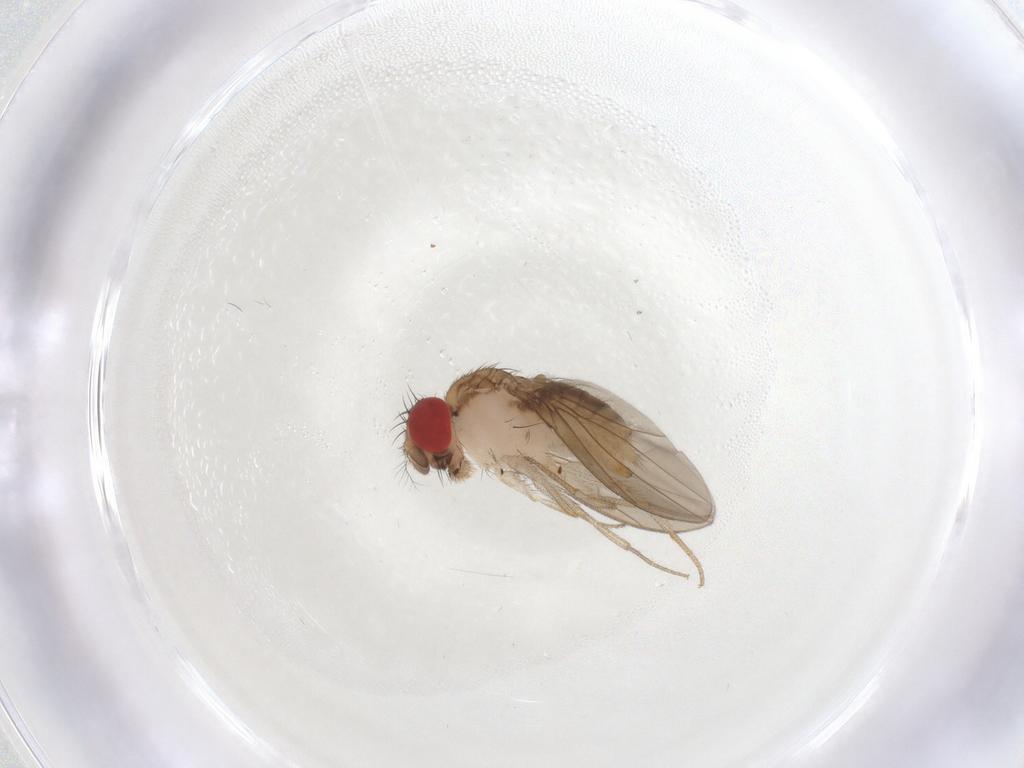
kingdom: Animalia
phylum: Arthropoda
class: Insecta
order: Diptera
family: Drosophilidae
